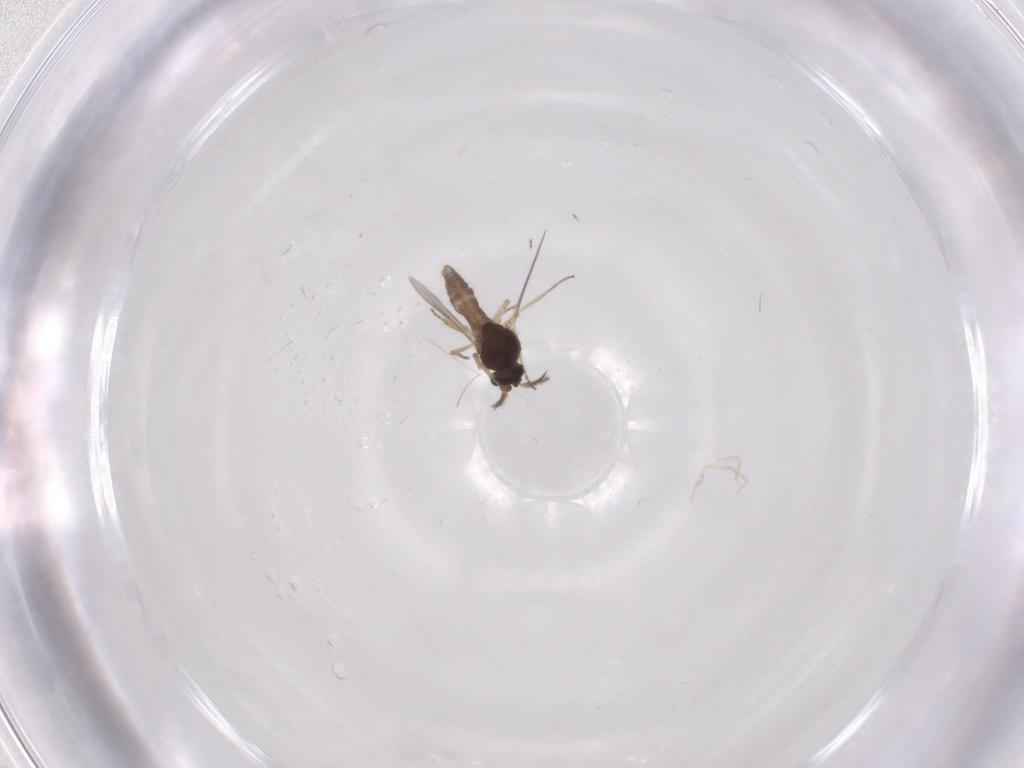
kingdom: Animalia
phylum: Arthropoda
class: Insecta
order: Diptera
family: Ceratopogonidae
